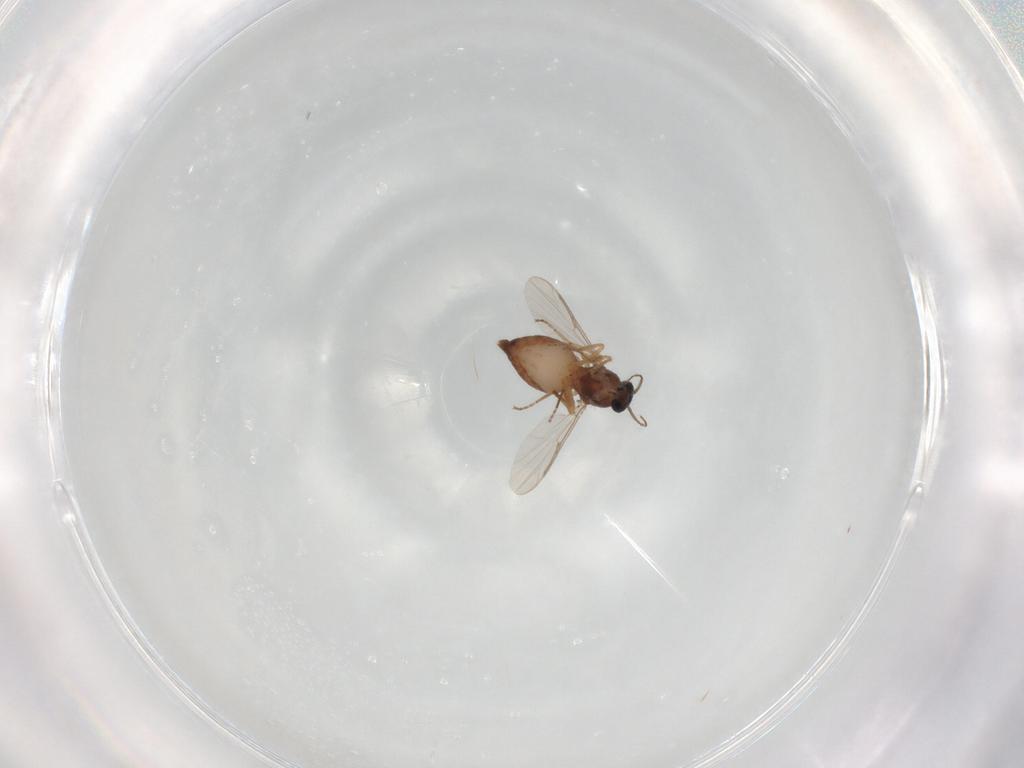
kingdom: Animalia
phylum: Arthropoda
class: Insecta
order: Diptera
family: Ceratopogonidae
